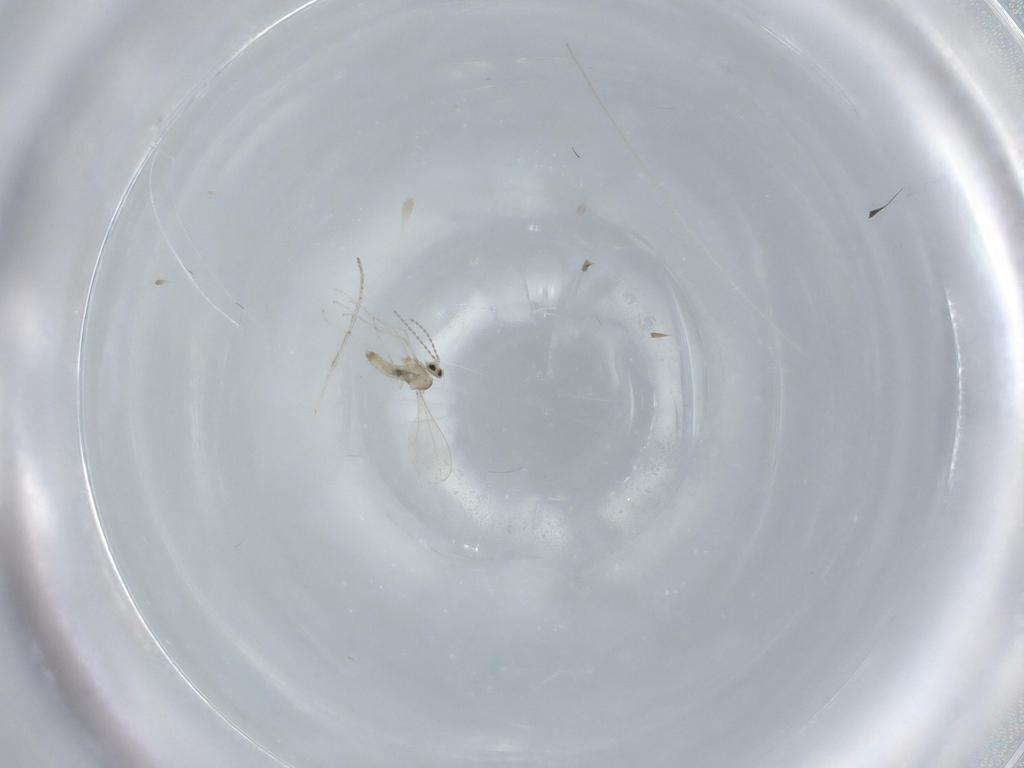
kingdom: Animalia
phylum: Arthropoda
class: Insecta
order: Diptera
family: Cecidomyiidae
